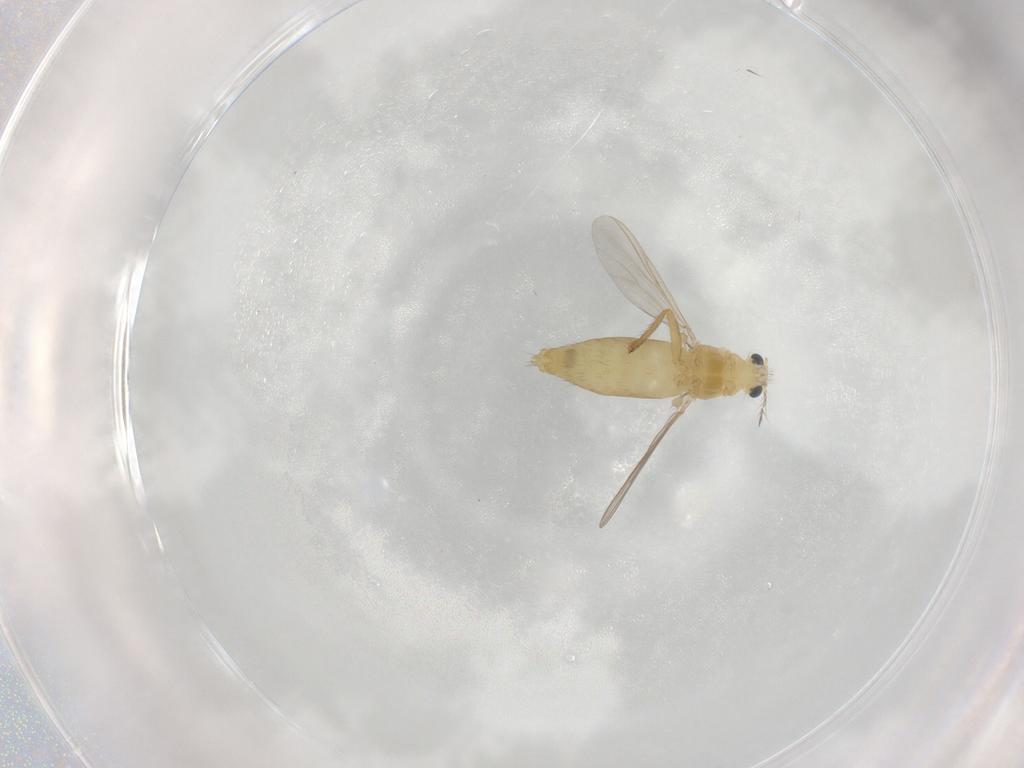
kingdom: Animalia
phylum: Arthropoda
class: Insecta
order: Diptera
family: Chironomidae
